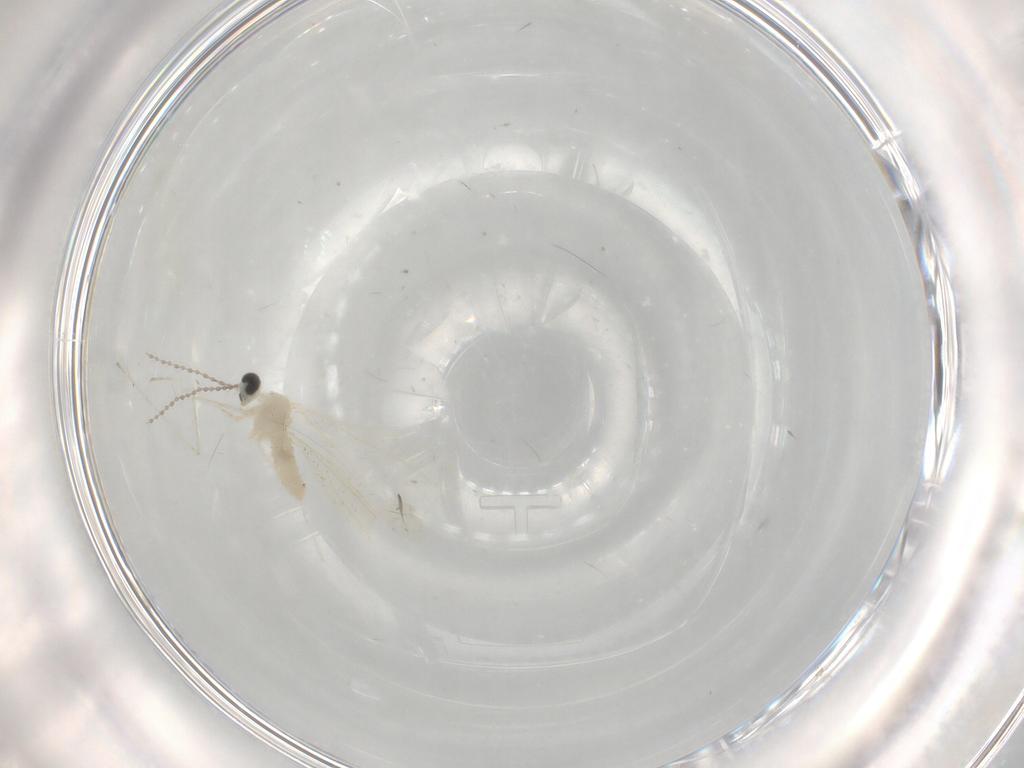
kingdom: Animalia
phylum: Arthropoda
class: Insecta
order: Diptera
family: Cecidomyiidae
